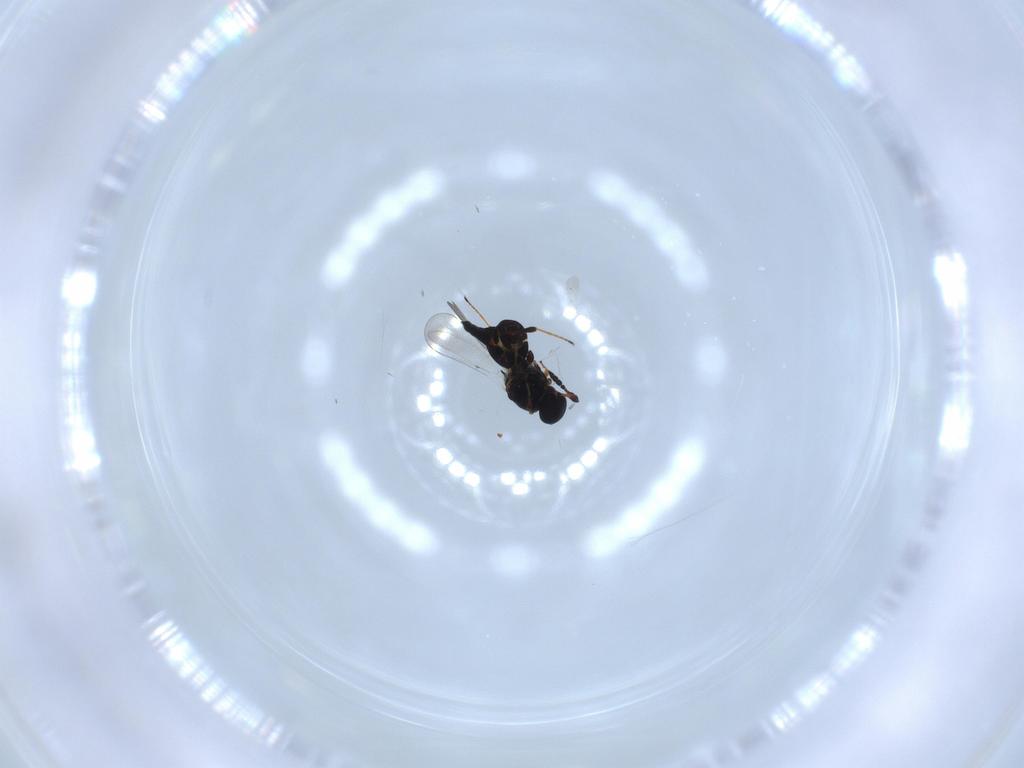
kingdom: Animalia
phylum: Arthropoda
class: Insecta
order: Hymenoptera
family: Platygastridae
